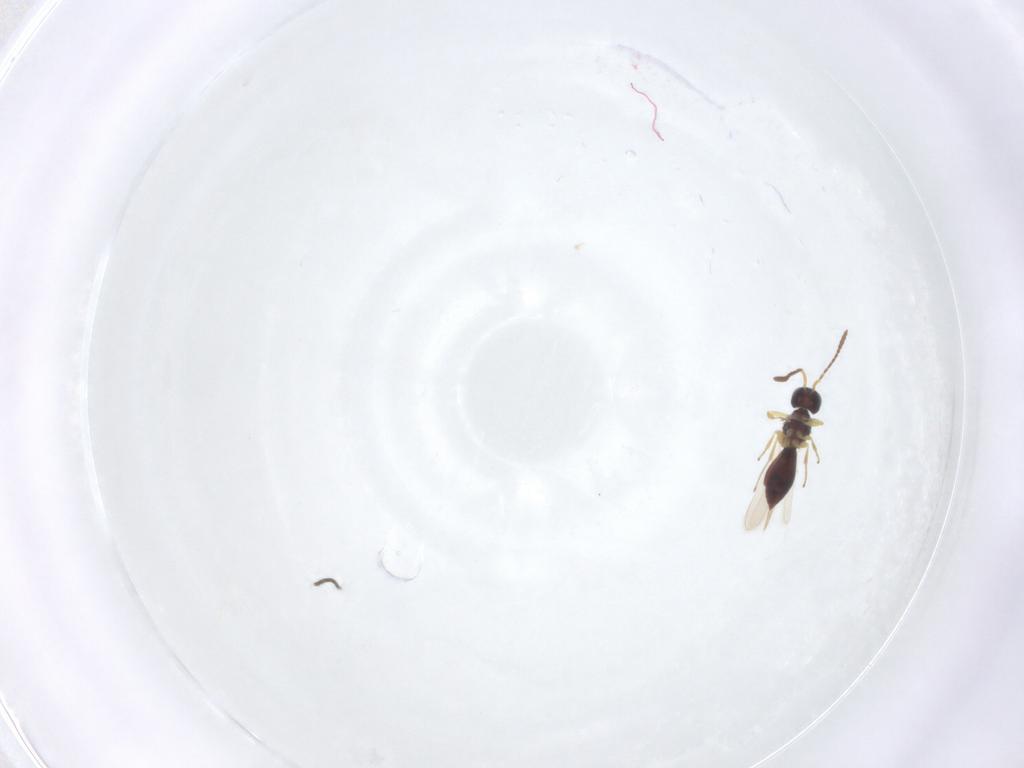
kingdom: Animalia
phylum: Arthropoda
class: Insecta
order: Hymenoptera
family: Scelionidae
